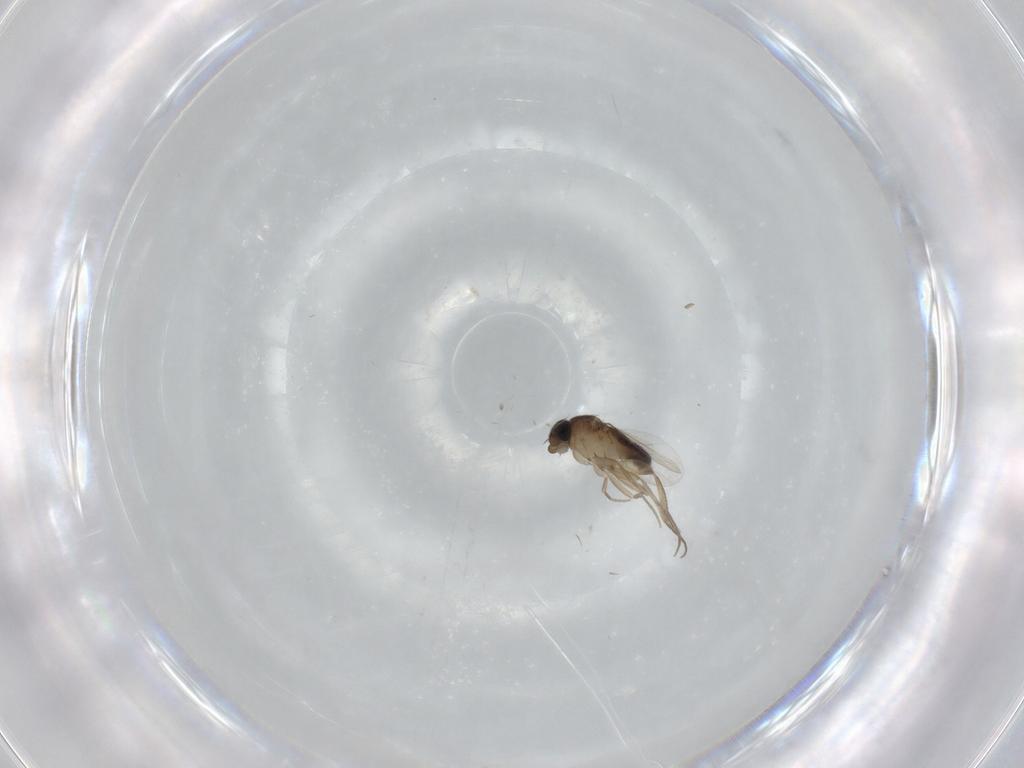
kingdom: Animalia
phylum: Arthropoda
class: Insecta
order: Diptera
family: Phoridae
